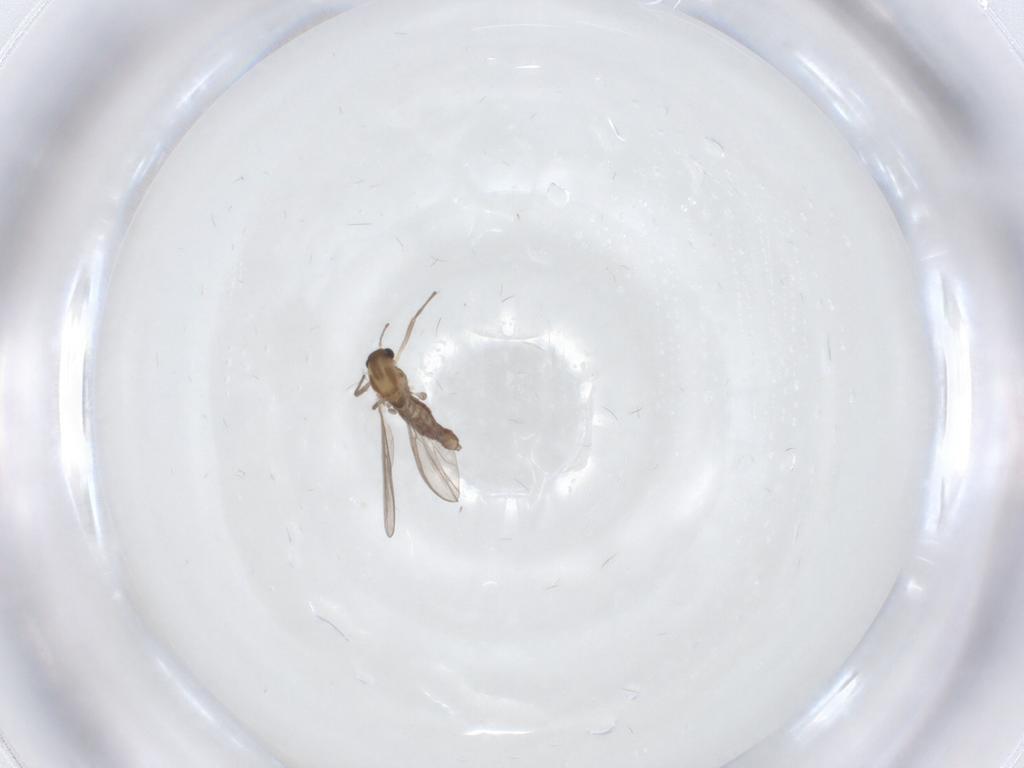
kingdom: Animalia
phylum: Arthropoda
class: Insecta
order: Diptera
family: Chironomidae
